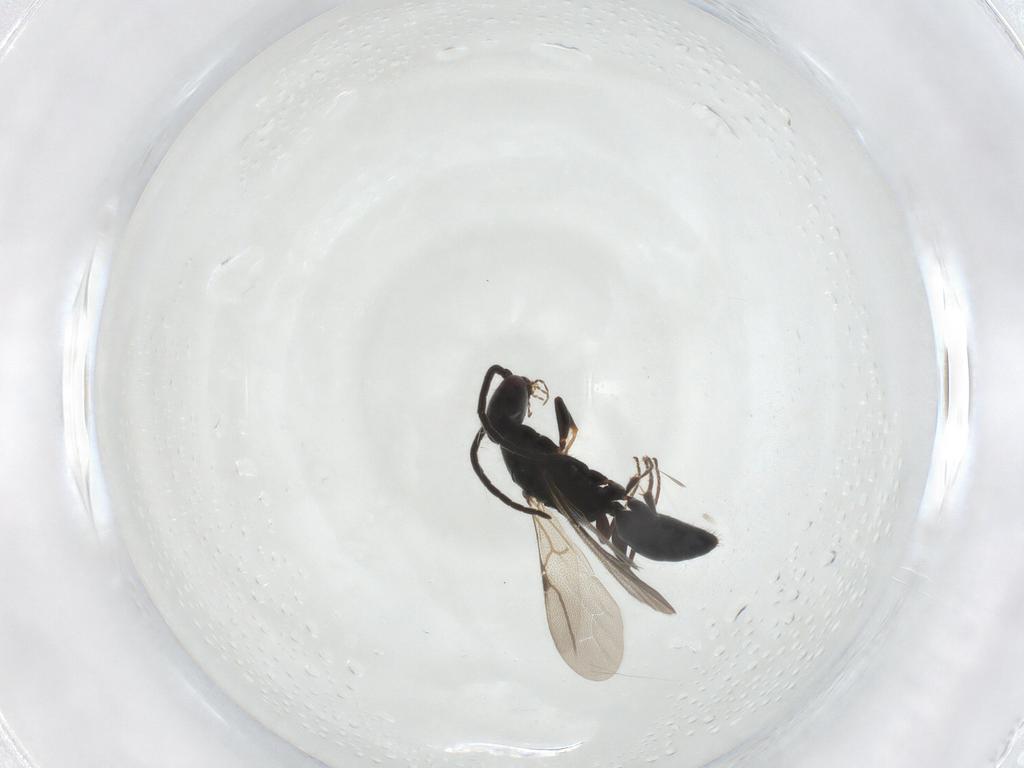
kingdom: Animalia
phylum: Arthropoda
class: Insecta
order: Hymenoptera
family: Bethylidae
